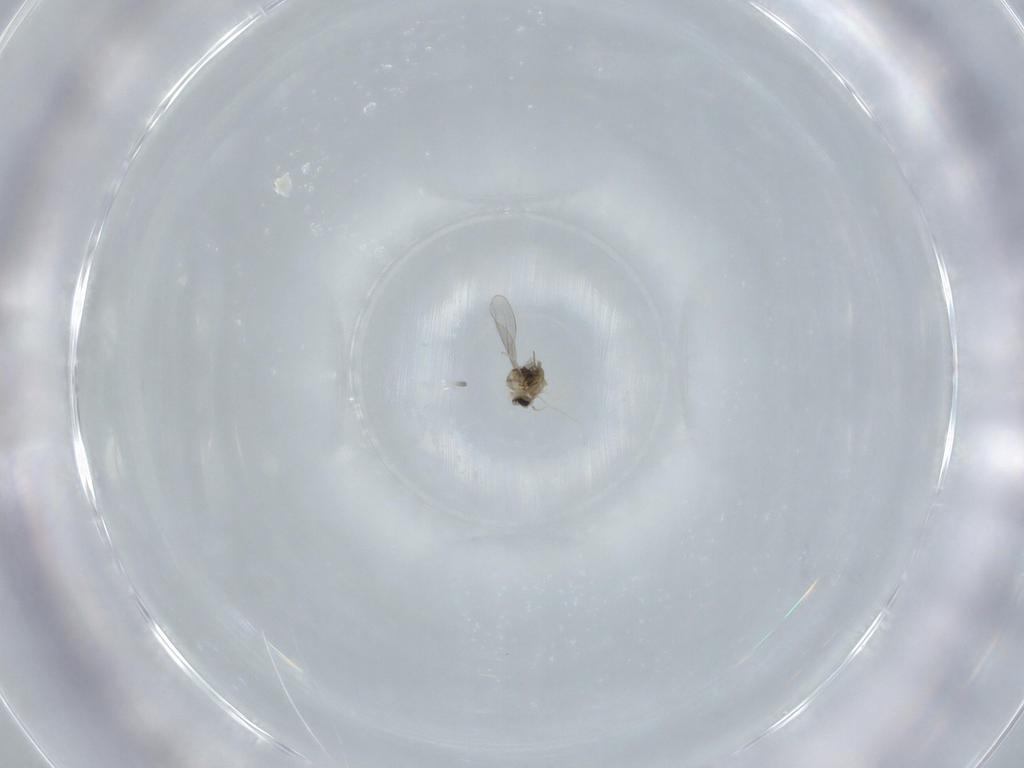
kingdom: Animalia
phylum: Arthropoda
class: Insecta
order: Diptera
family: Cecidomyiidae
